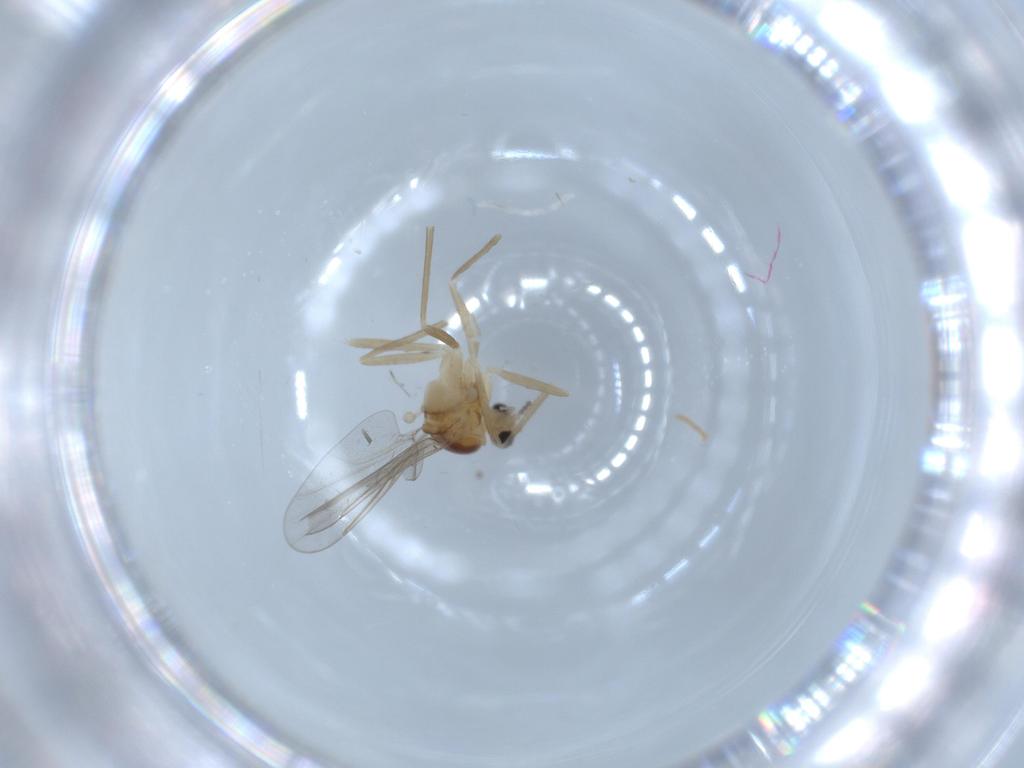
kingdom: Animalia
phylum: Arthropoda
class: Insecta
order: Diptera
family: Cecidomyiidae
